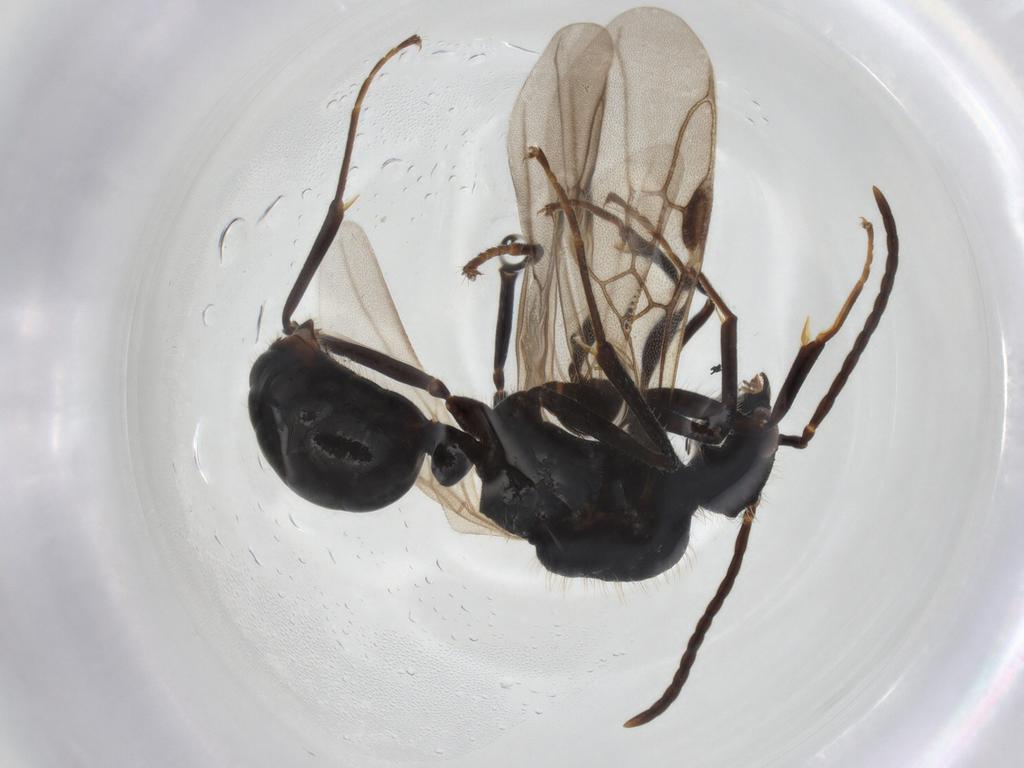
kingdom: Animalia
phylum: Arthropoda
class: Insecta
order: Hymenoptera
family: Formicidae
